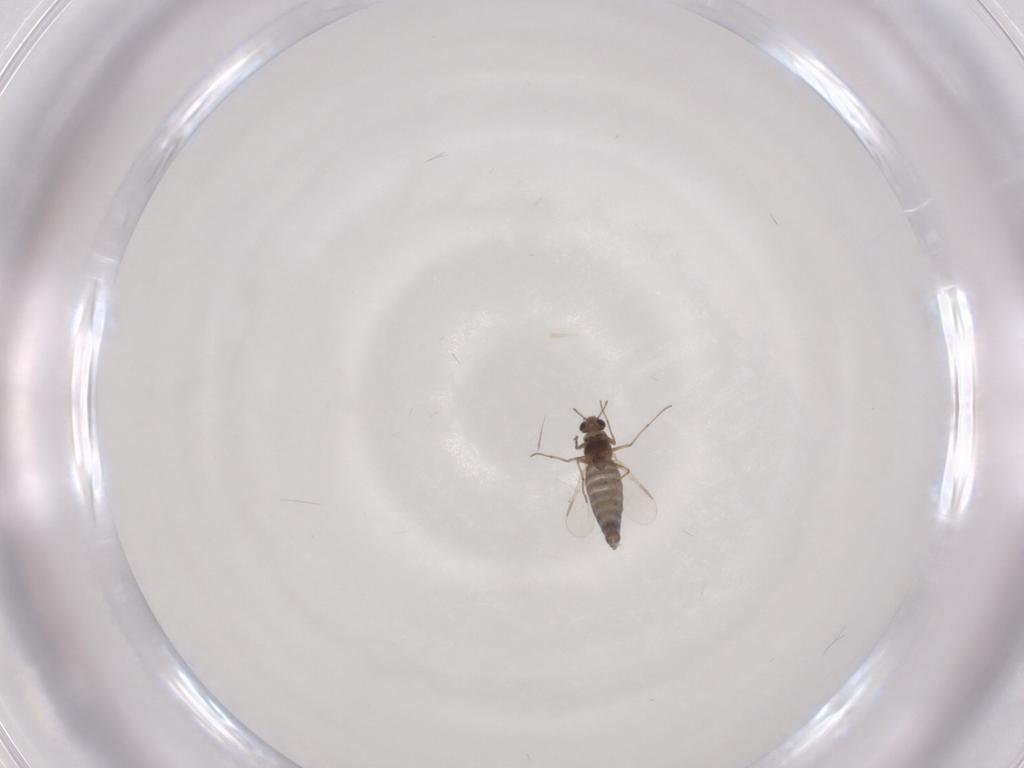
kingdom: Animalia
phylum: Arthropoda
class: Insecta
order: Diptera
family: Chironomidae
